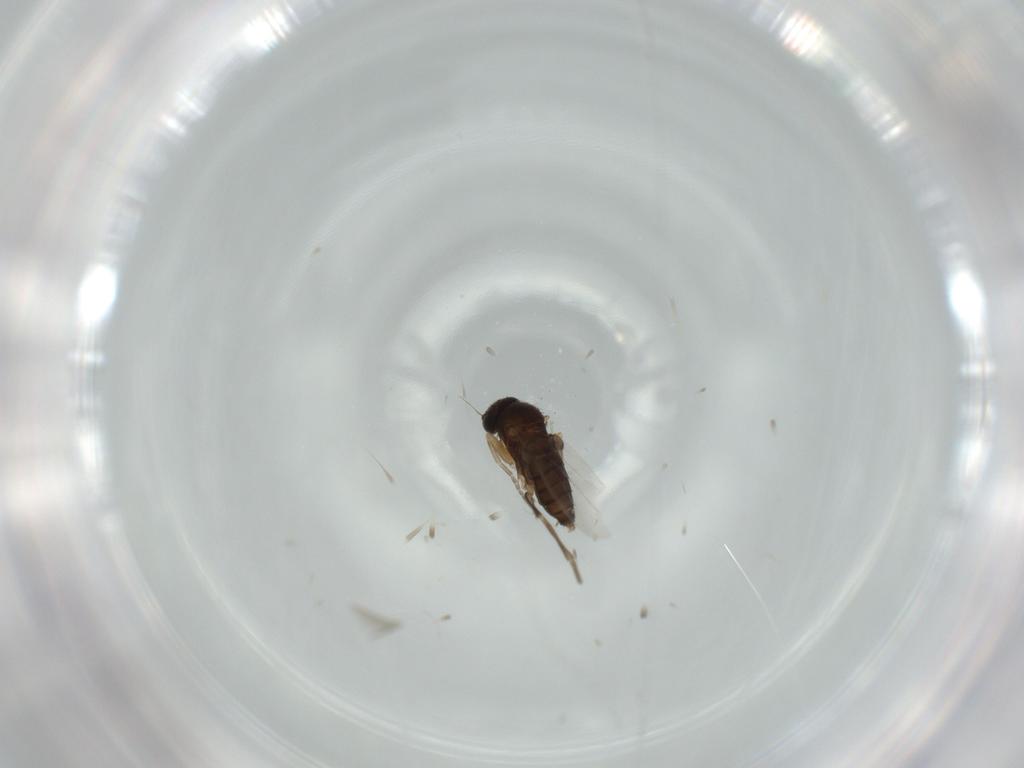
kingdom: Animalia
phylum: Arthropoda
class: Insecta
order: Diptera
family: Phoridae
